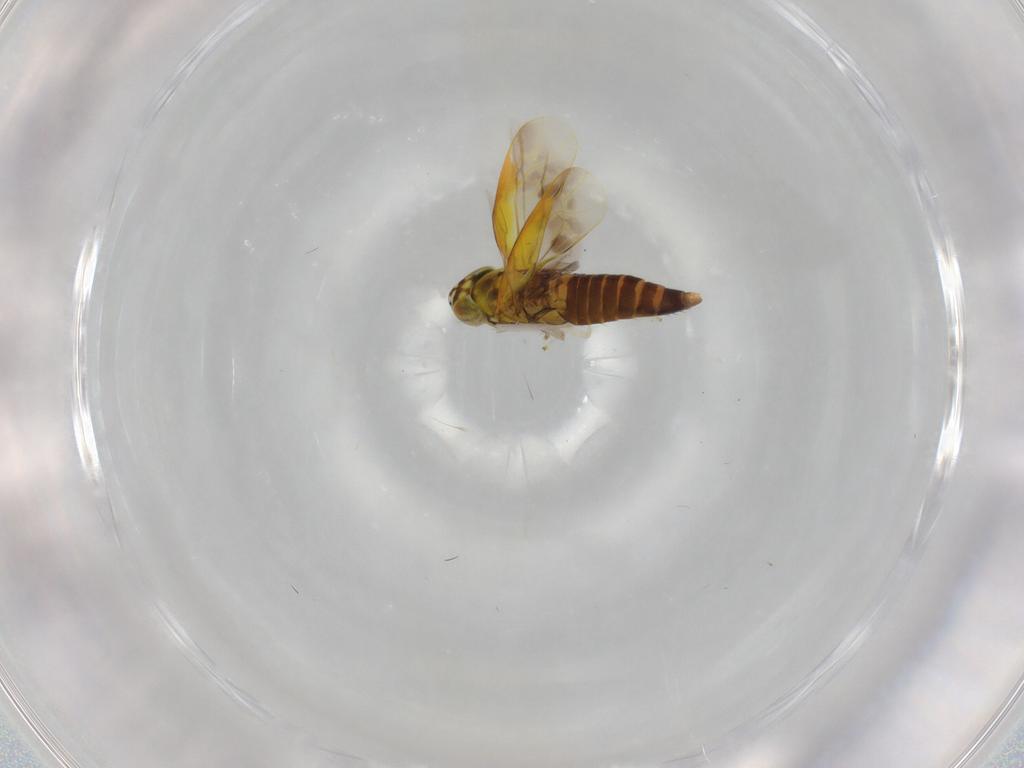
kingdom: Animalia
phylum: Arthropoda
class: Insecta
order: Hemiptera
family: Cicadellidae
